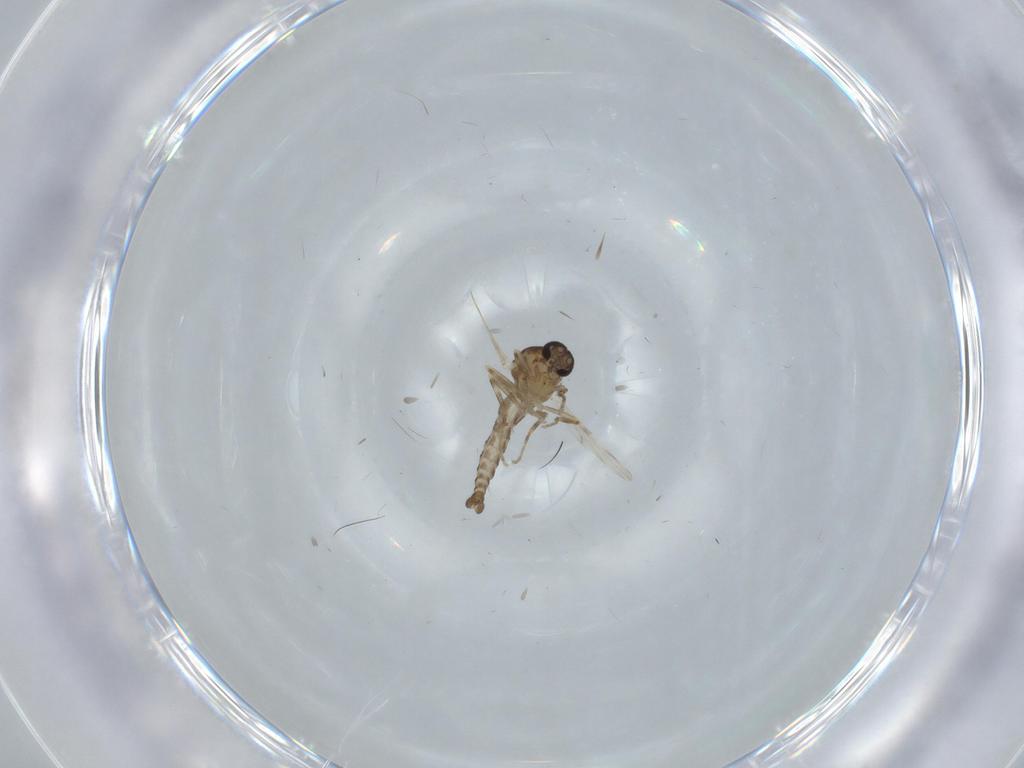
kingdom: Animalia
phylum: Arthropoda
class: Insecta
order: Diptera
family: Ceratopogonidae
